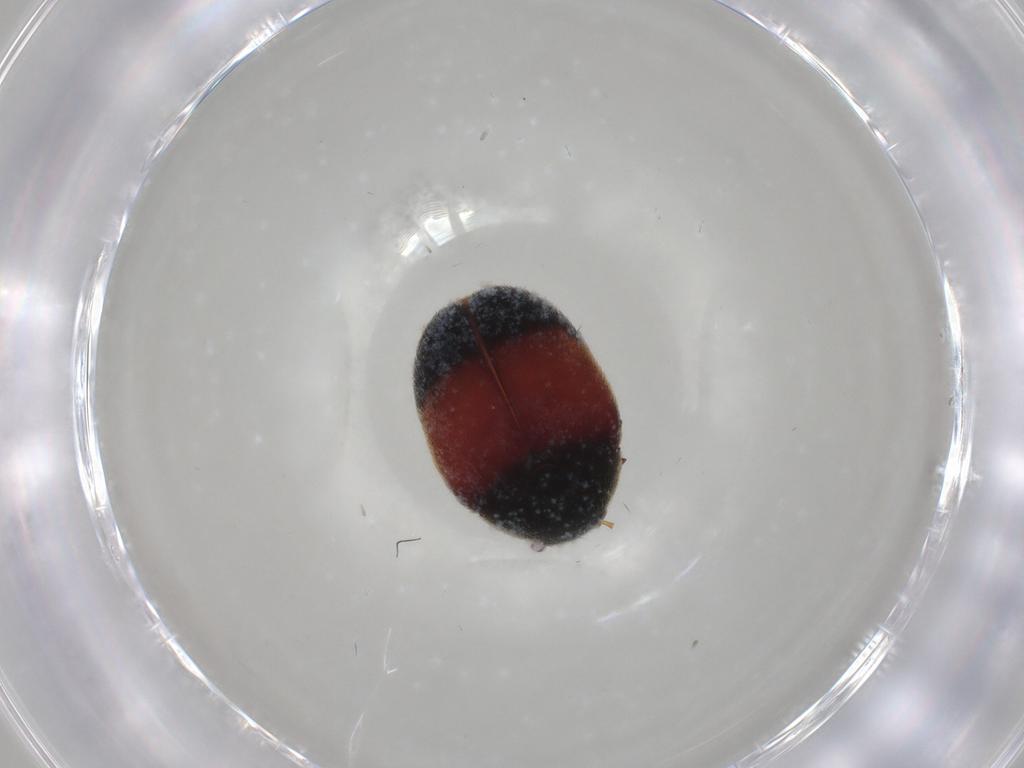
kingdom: Animalia
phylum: Arthropoda
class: Insecta
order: Coleoptera
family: Dermestidae
